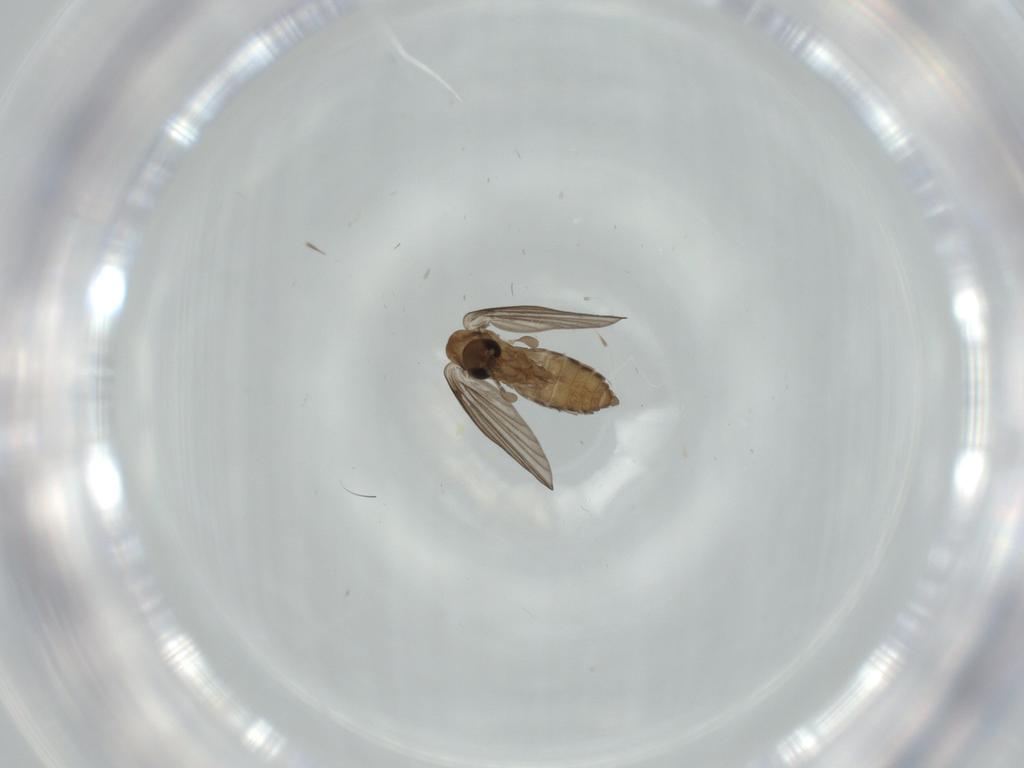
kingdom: Animalia
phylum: Arthropoda
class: Insecta
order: Diptera
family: Psychodidae
